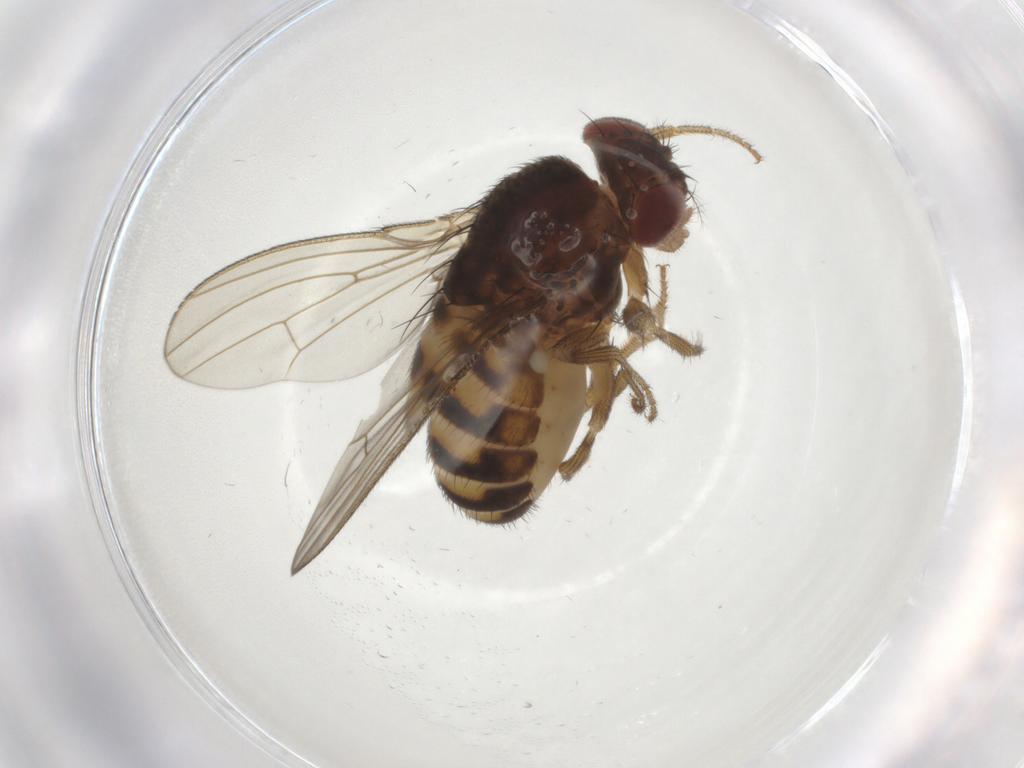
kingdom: Animalia
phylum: Arthropoda
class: Insecta
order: Diptera
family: Drosophilidae
